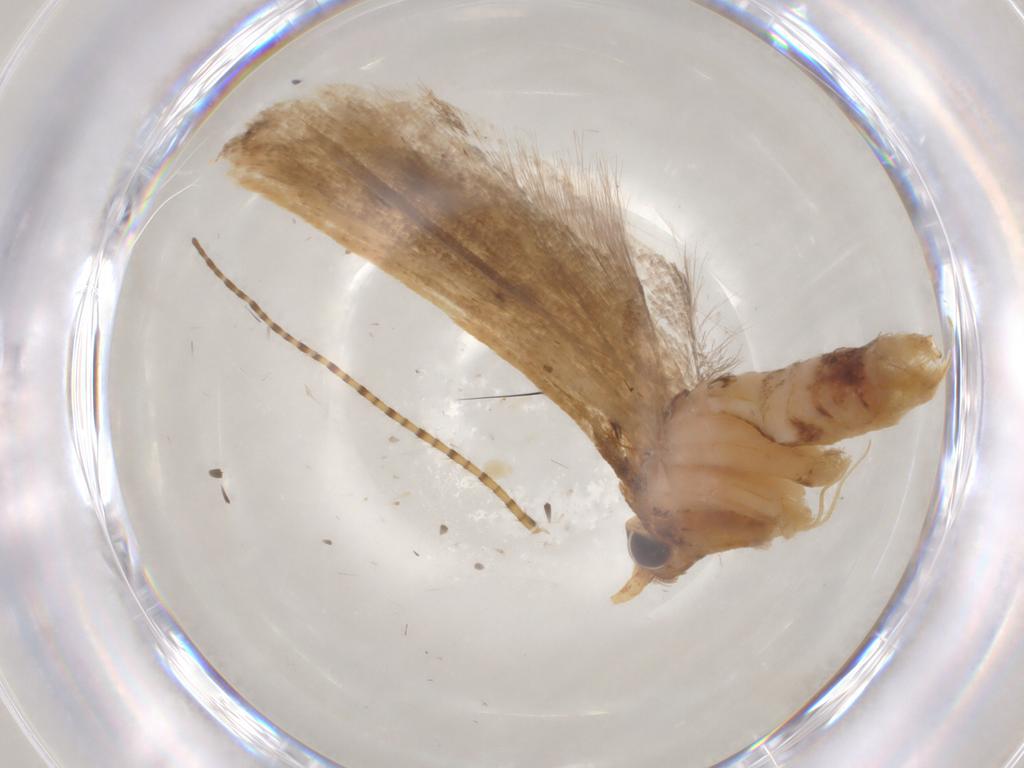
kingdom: Animalia
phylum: Arthropoda
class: Insecta
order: Lepidoptera
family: Lecithoceridae
